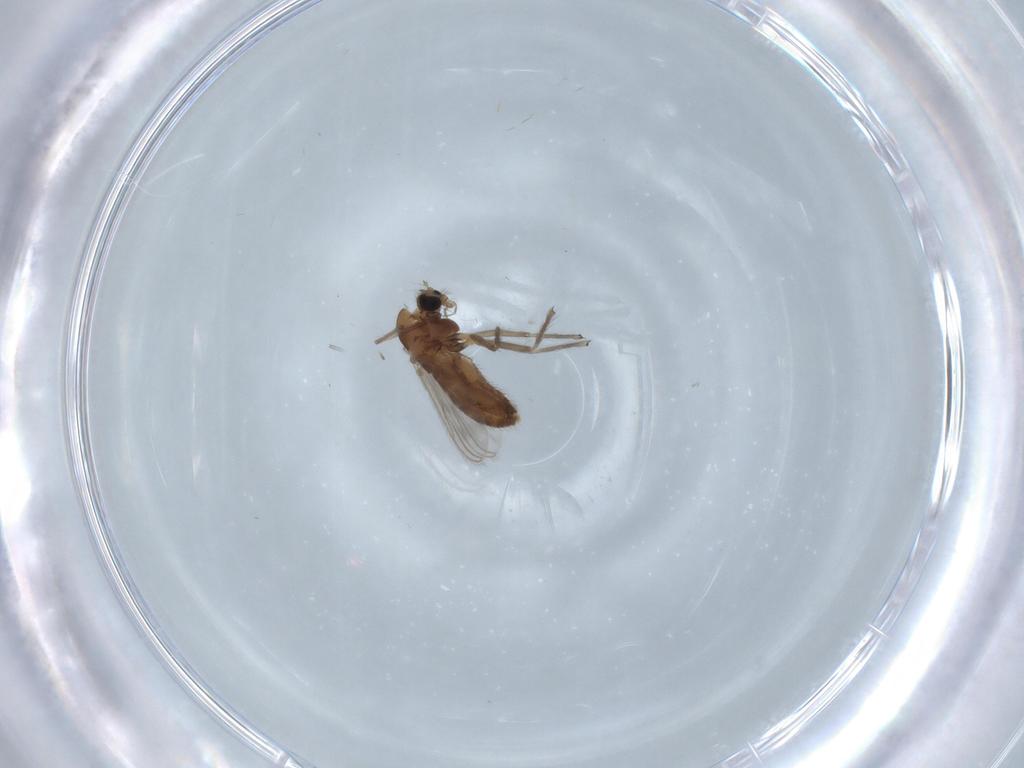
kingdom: Animalia
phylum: Arthropoda
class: Insecta
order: Diptera
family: Chironomidae
